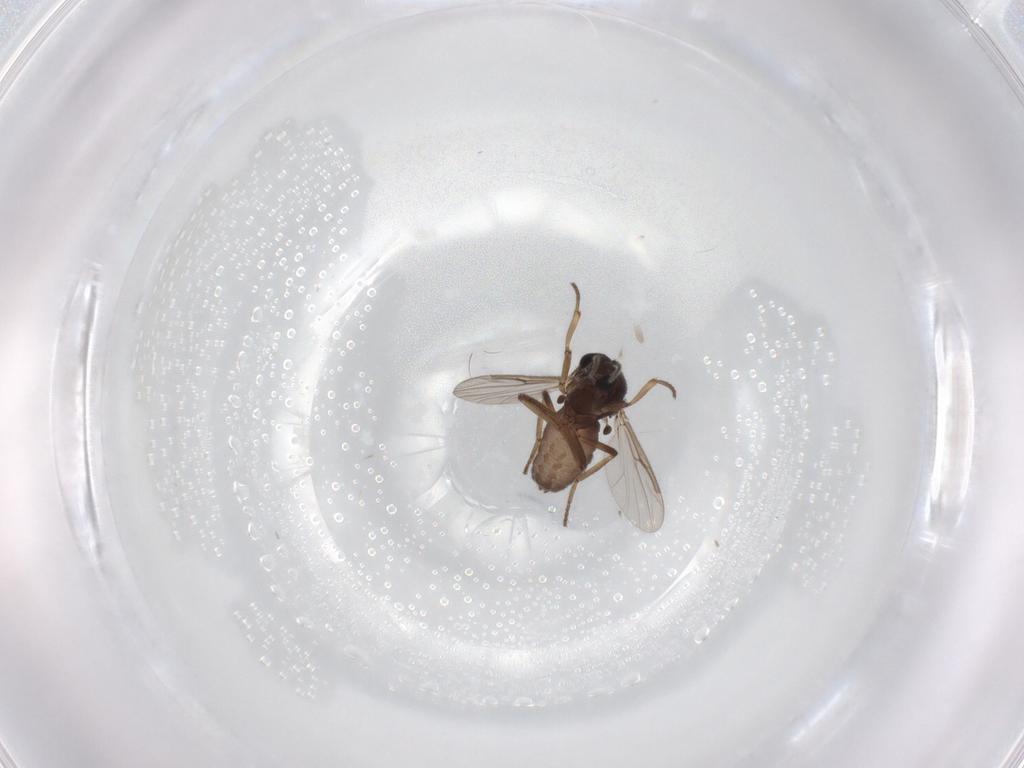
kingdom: Animalia
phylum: Arthropoda
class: Insecta
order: Diptera
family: Ceratopogonidae
